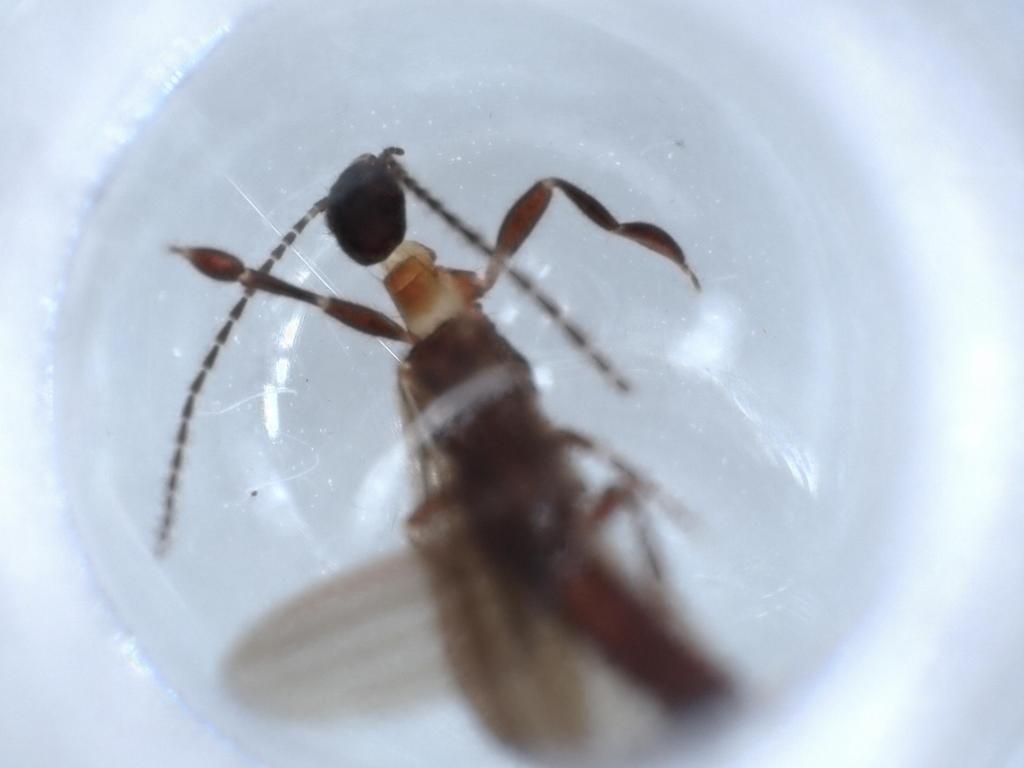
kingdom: Animalia
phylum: Arthropoda
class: Insecta
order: Embioptera
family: Anisembiidae
